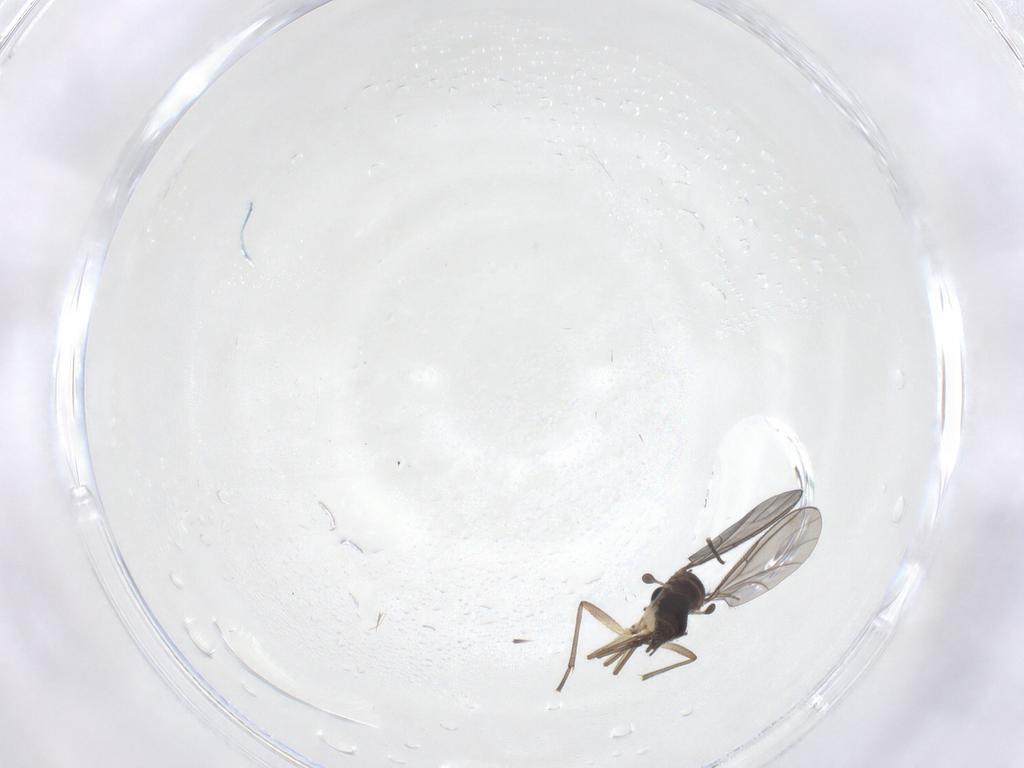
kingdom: Animalia
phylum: Arthropoda
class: Insecta
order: Diptera
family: Sciaridae
